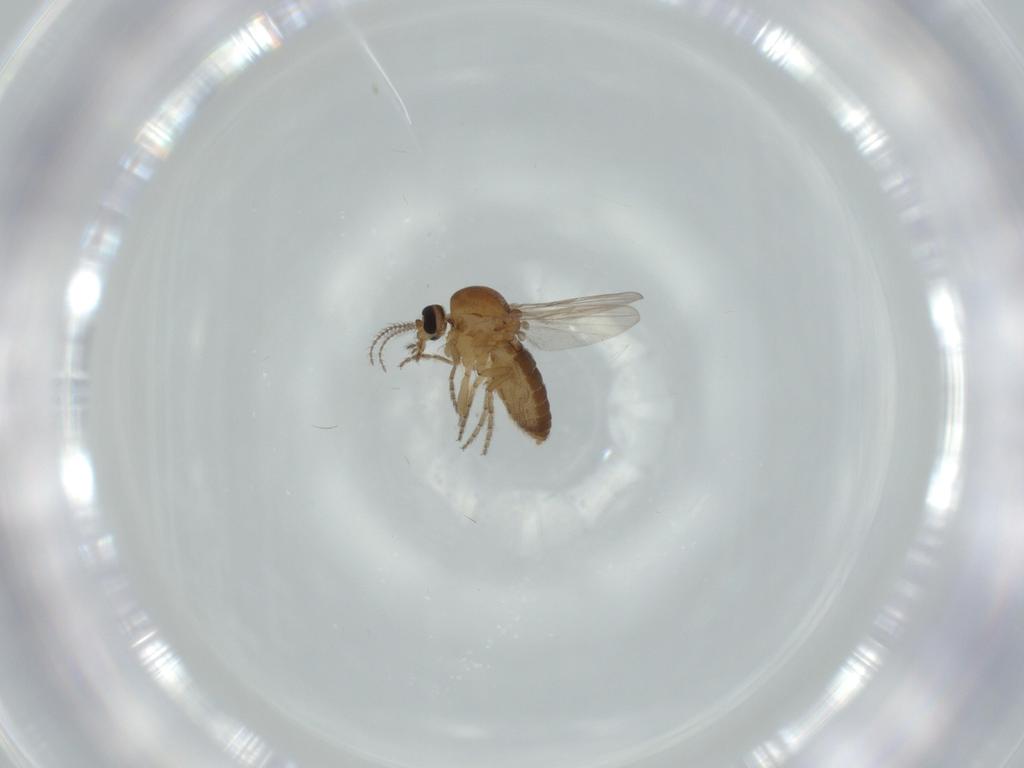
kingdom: Animalia
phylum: Arthropoda
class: Insecta
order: Diptera
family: Ceratopogonidae
